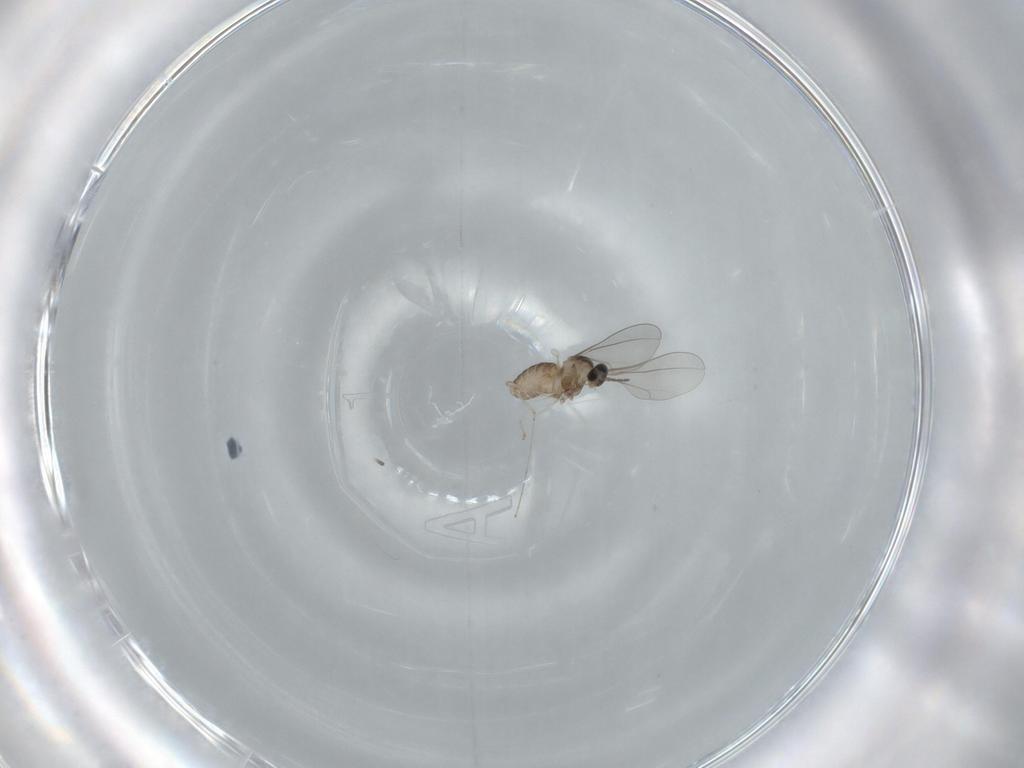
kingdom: Animalia
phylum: Arthropoda
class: Insecta
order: Diptera
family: Cecidomyiidae
